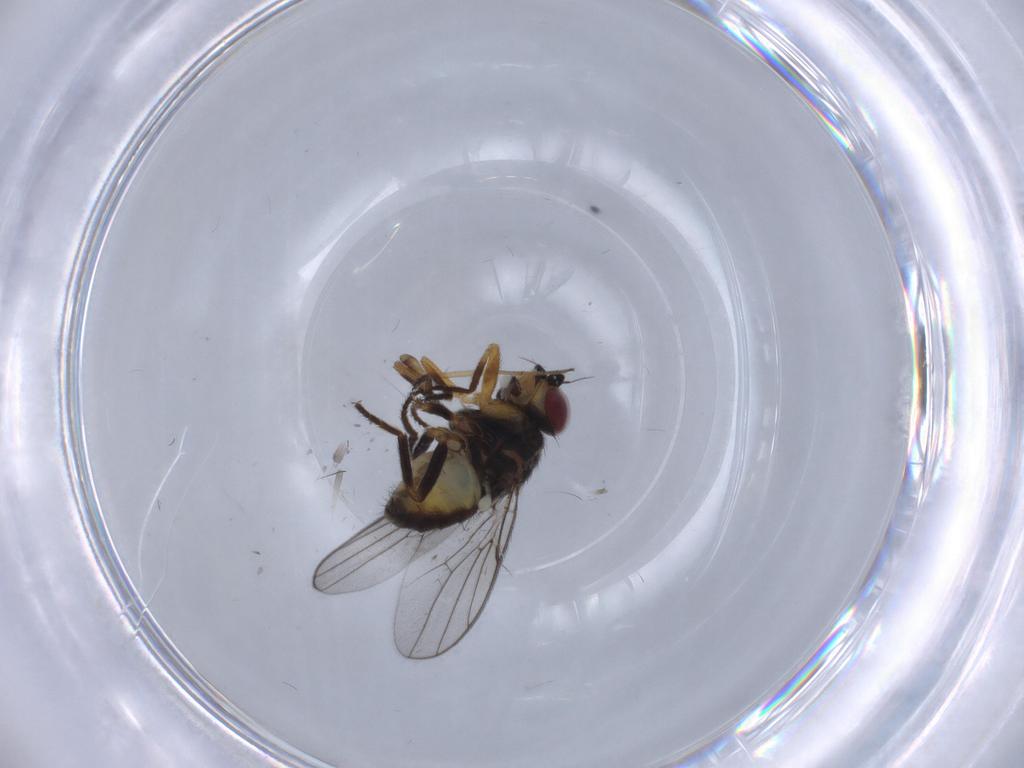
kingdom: Animalia
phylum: Arthropoda
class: Insecta
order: Diptera
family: Chloropidae
